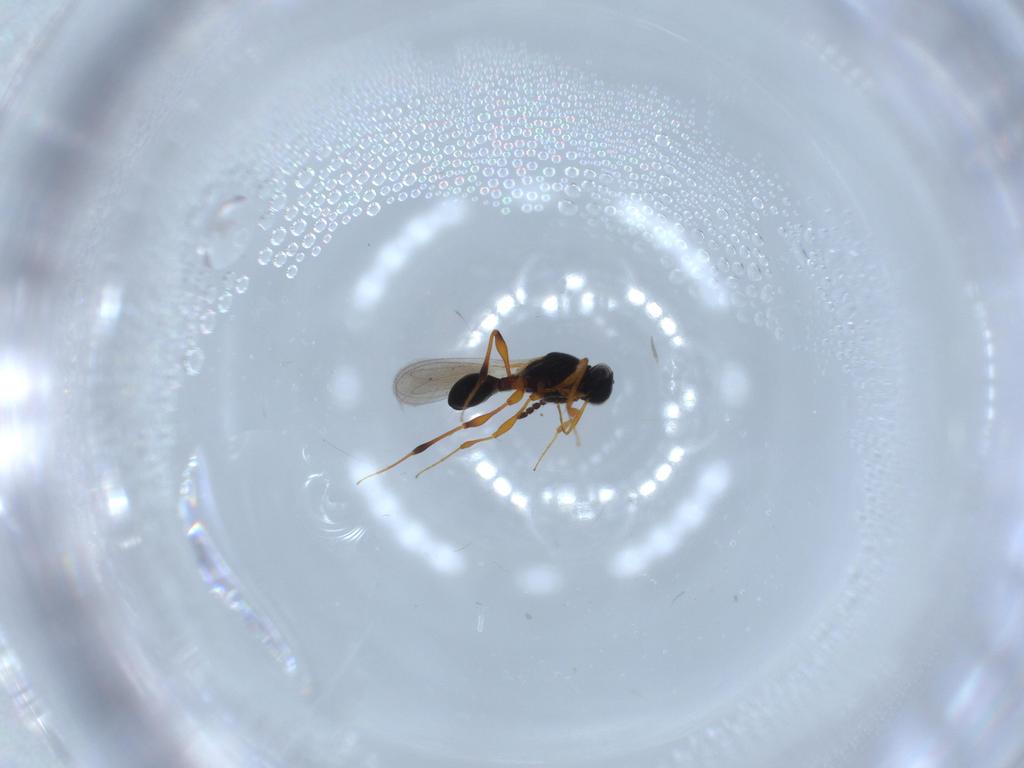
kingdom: Animalia
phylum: Arthropoda
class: Insecta
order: Hymenoptera
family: Platygastridae
